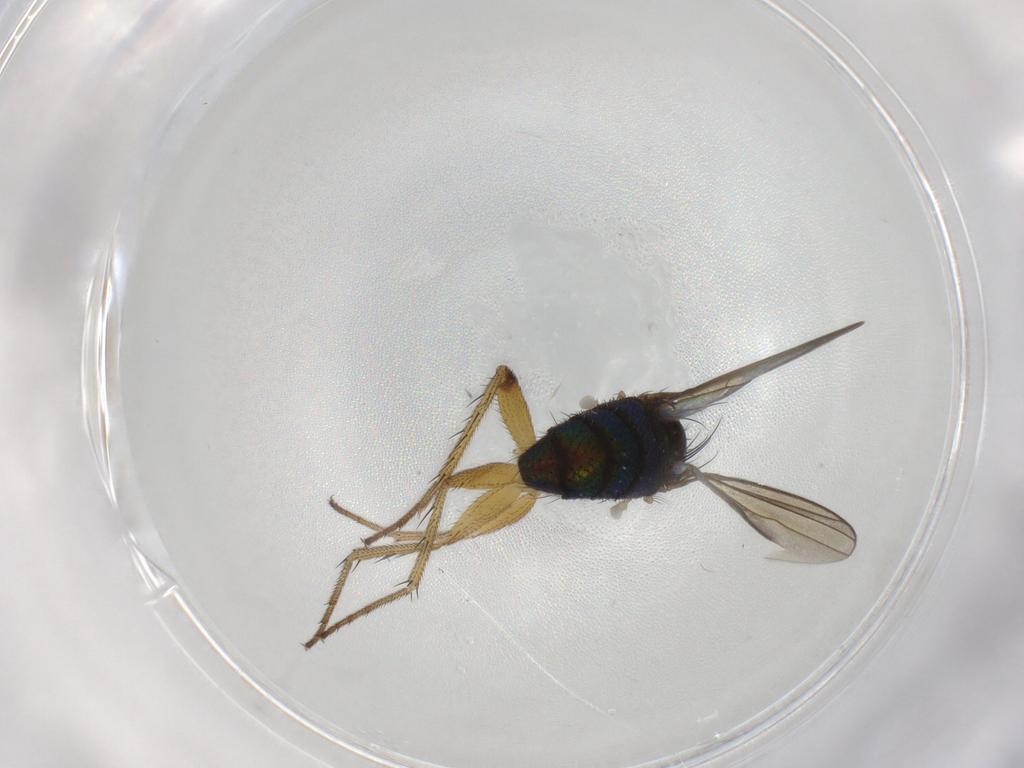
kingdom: Animalia
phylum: Arthropoda
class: Insecta
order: Diptera
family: Dolichopodidae
